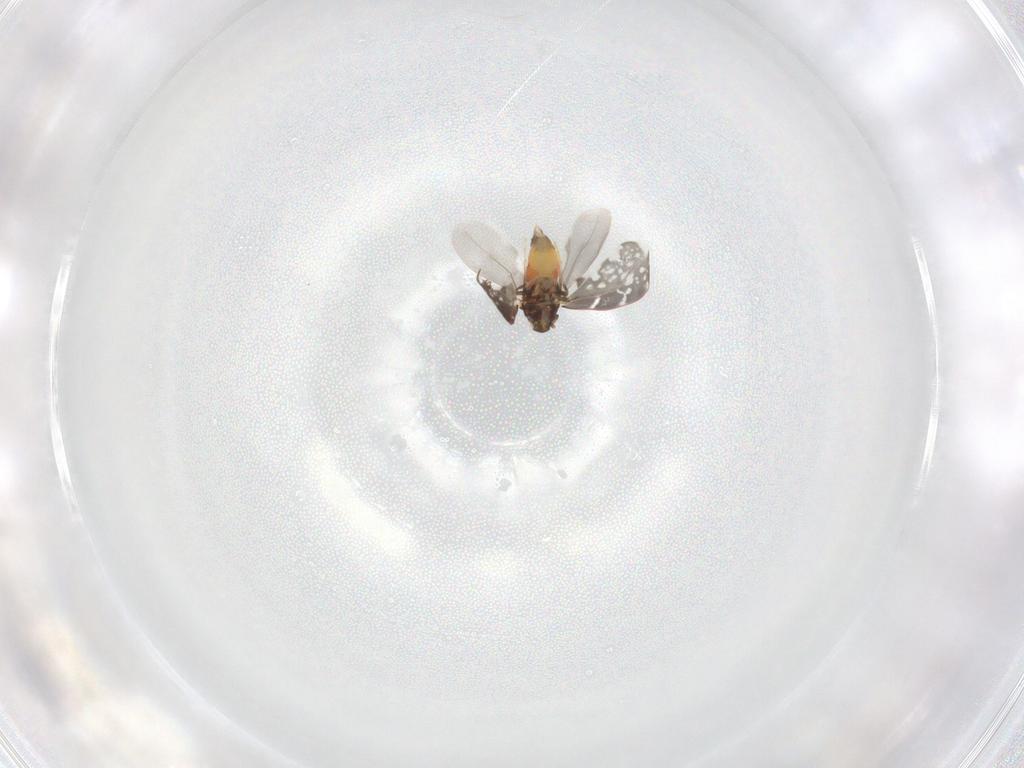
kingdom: Animalia
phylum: Arthropoda
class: Insecta
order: Hemiptera
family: Aleyrodidae
